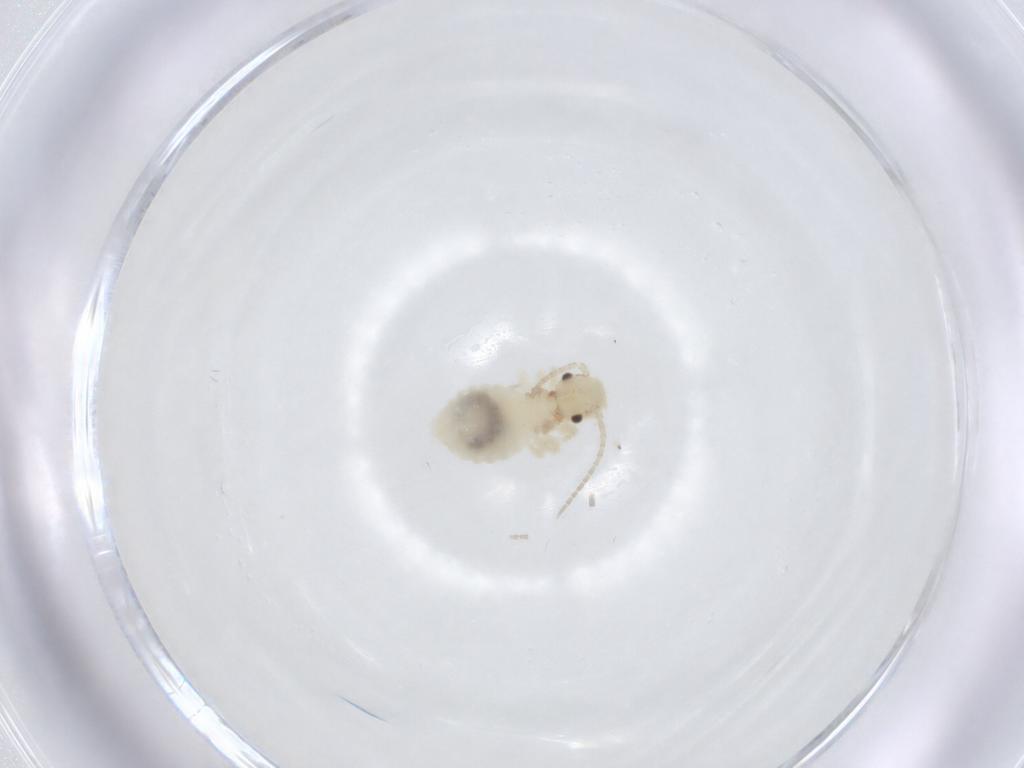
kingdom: Animalia
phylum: Arthropoda
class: Insecta
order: Psocodea
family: Amphipsocidae
